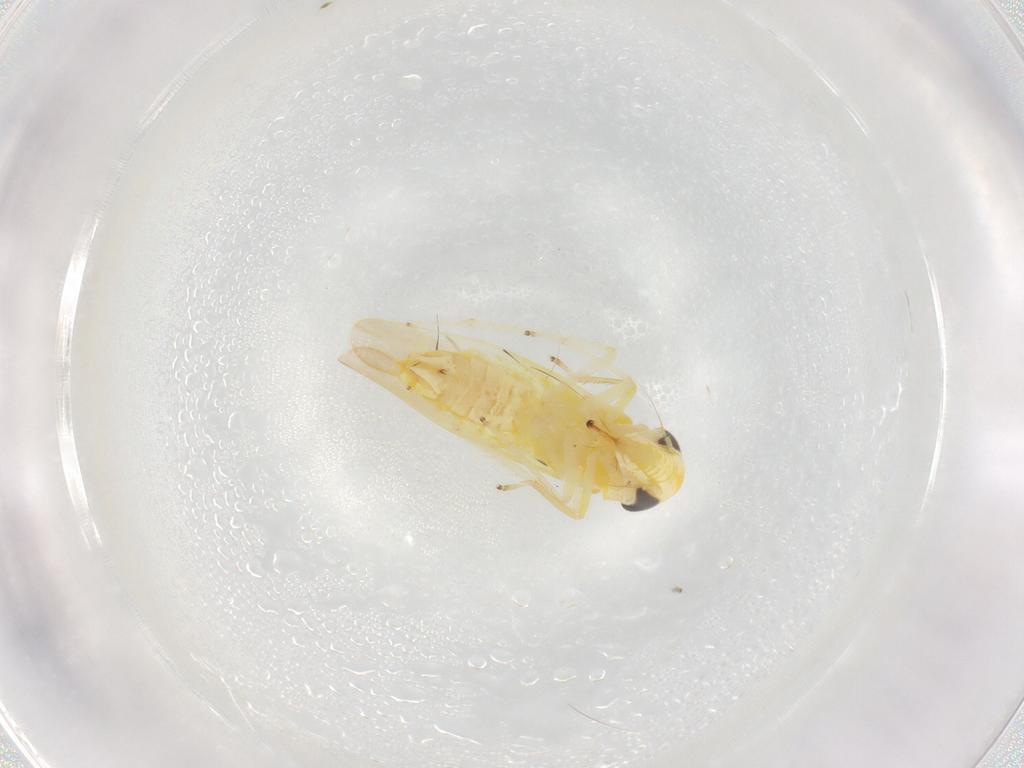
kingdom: Animalia
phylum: Arthropoda
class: Insecta
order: Hemiptera
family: Cicadellidae
